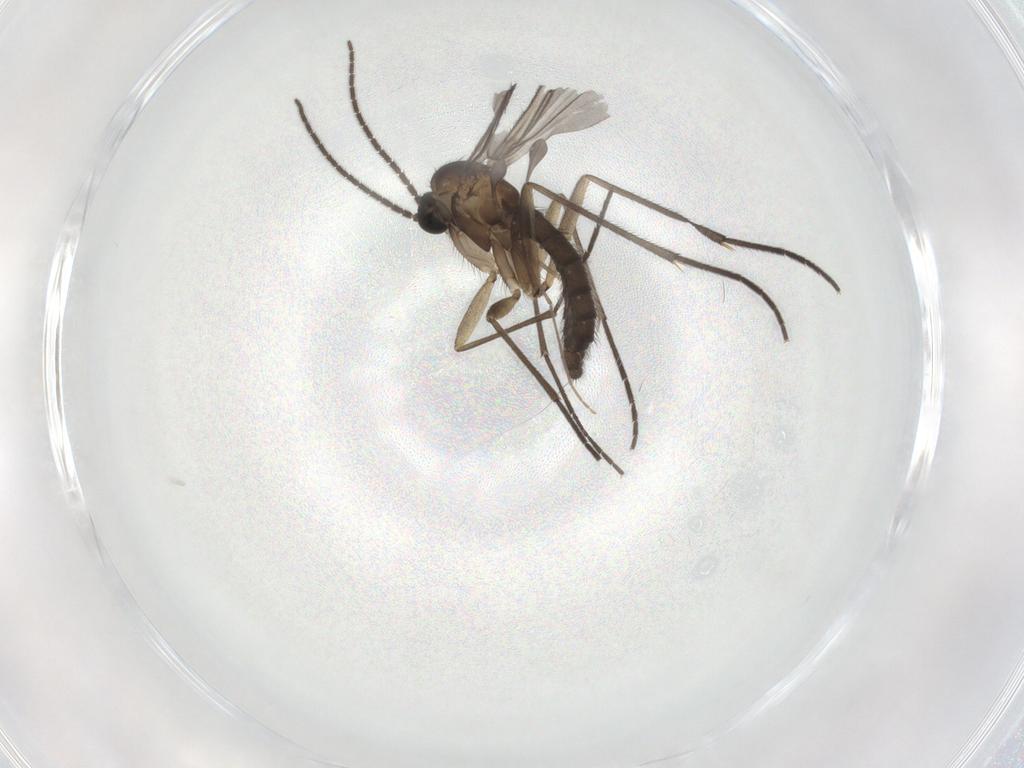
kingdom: Animalia
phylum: Arthropoda
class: Insecta
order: Diptera
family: Sciaridae
